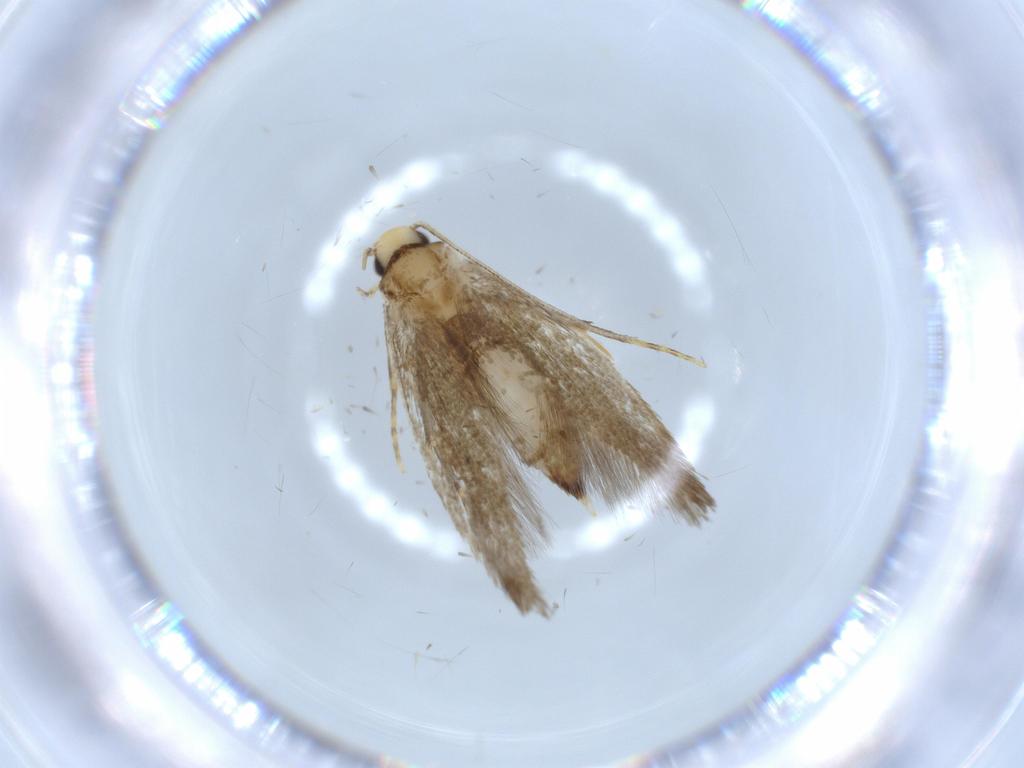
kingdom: Animalia
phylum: Arthropoda
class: Insecta
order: Lepidoptera
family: Tineidae
